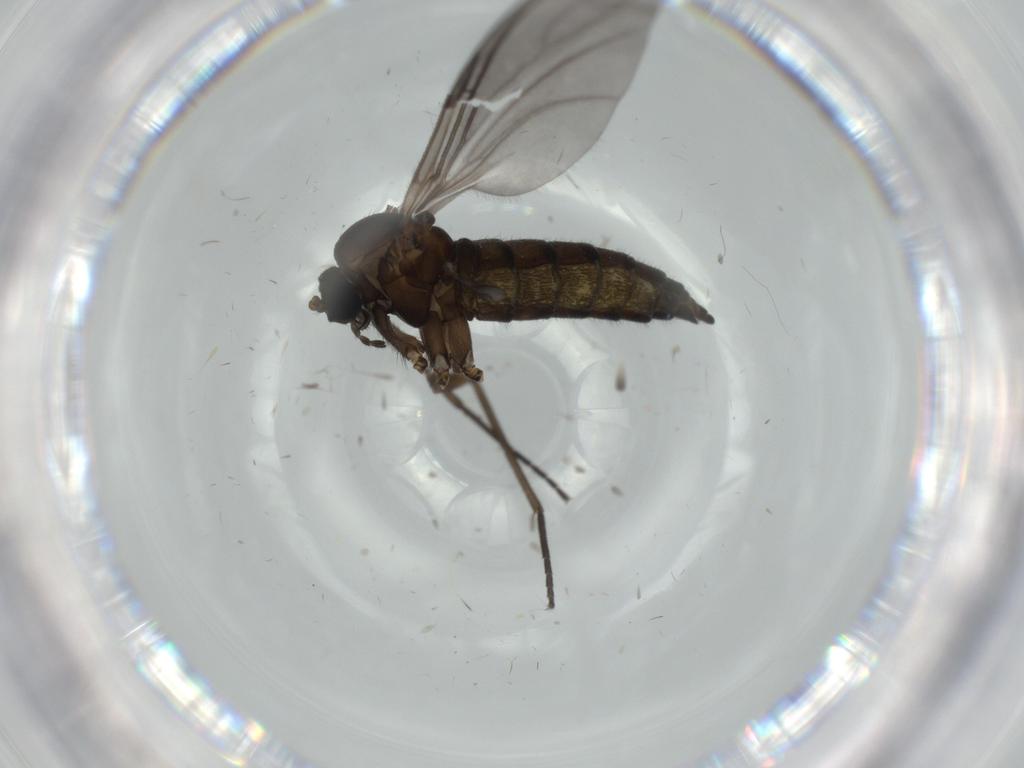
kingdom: Animalia
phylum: Arthropoda
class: Insecta
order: Diptera
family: Sciaridae
